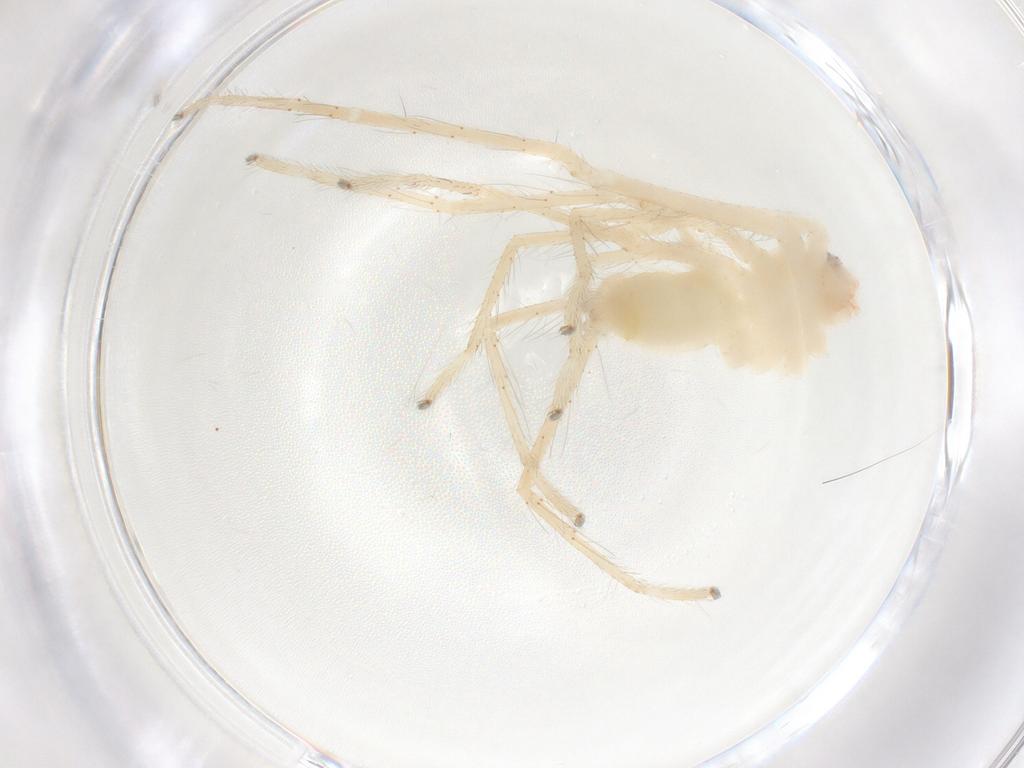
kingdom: Animalia
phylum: Arthropoda
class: Arachnida
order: Araneae
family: Sparassidae
